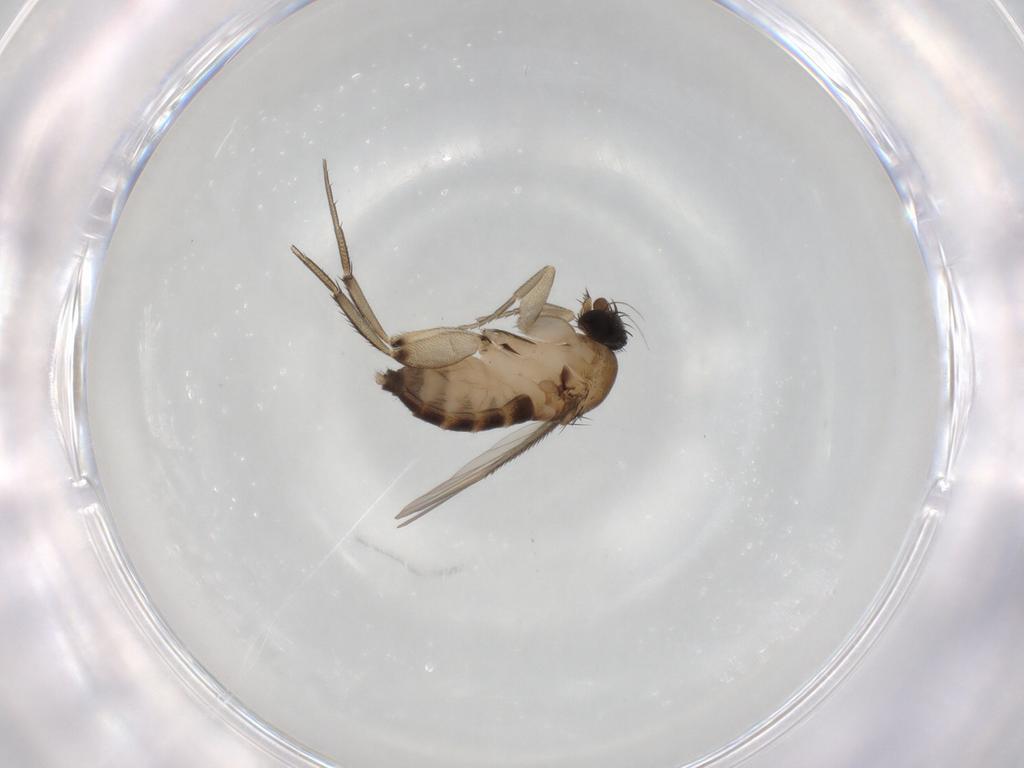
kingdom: Animalia
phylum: Arthropoda
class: Insecta
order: Diptera
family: Phoridae
